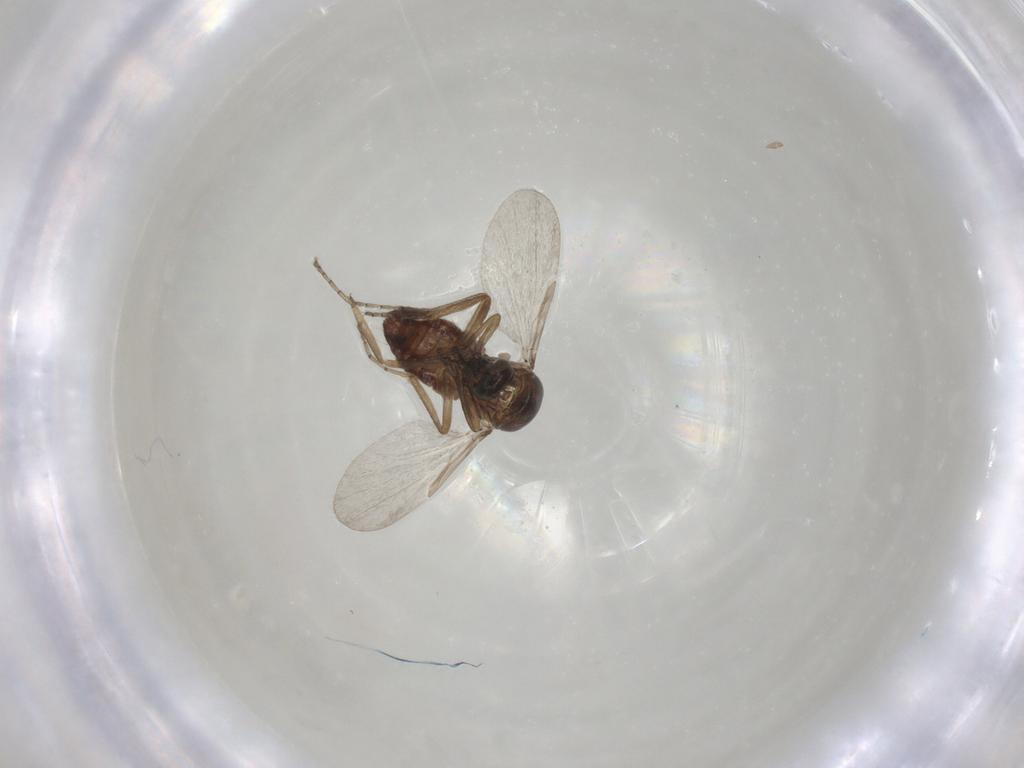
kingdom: Animalia
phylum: Arthropoda
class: Insecta
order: Diptera
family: Ceratopogonidae
